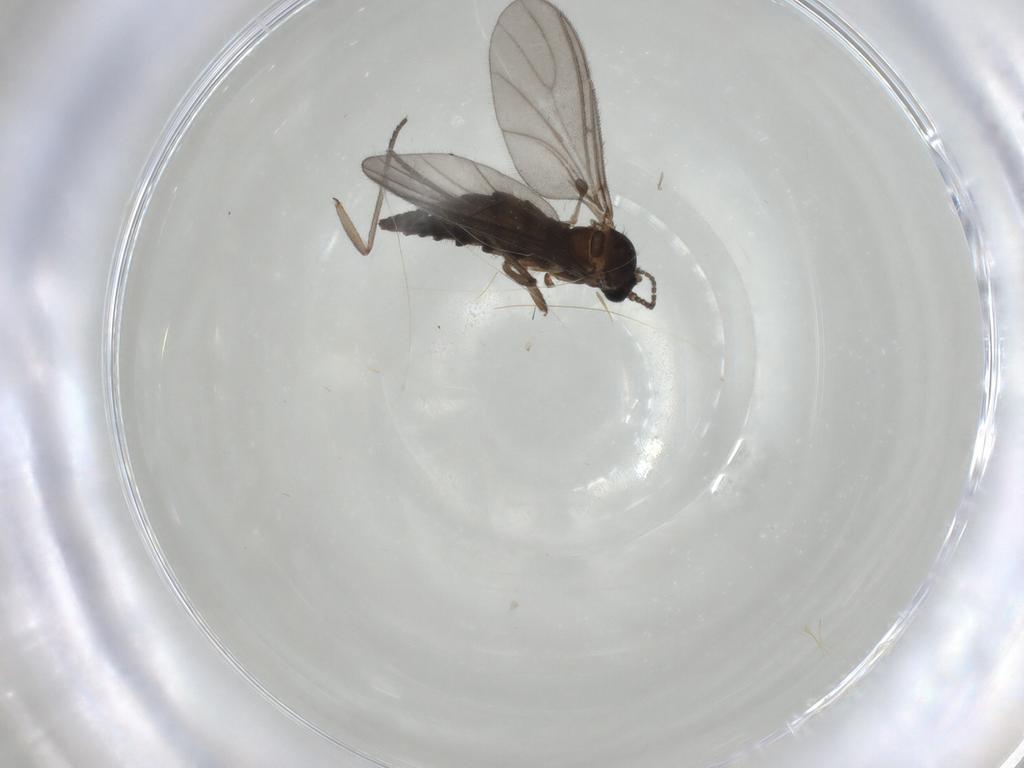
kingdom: Animalia
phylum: Arthropoda
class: Insecta
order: Diptera
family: Sciaridae
